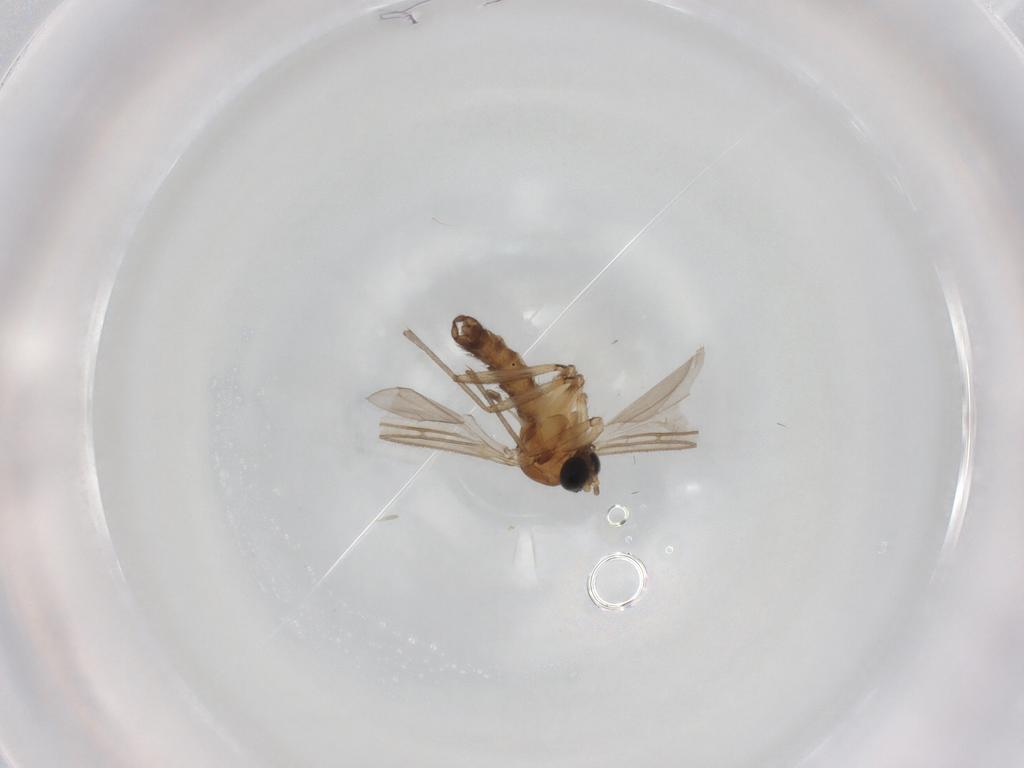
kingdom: Animalia
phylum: Arthropoda
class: Insecta
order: Diptera
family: Sciaridae
